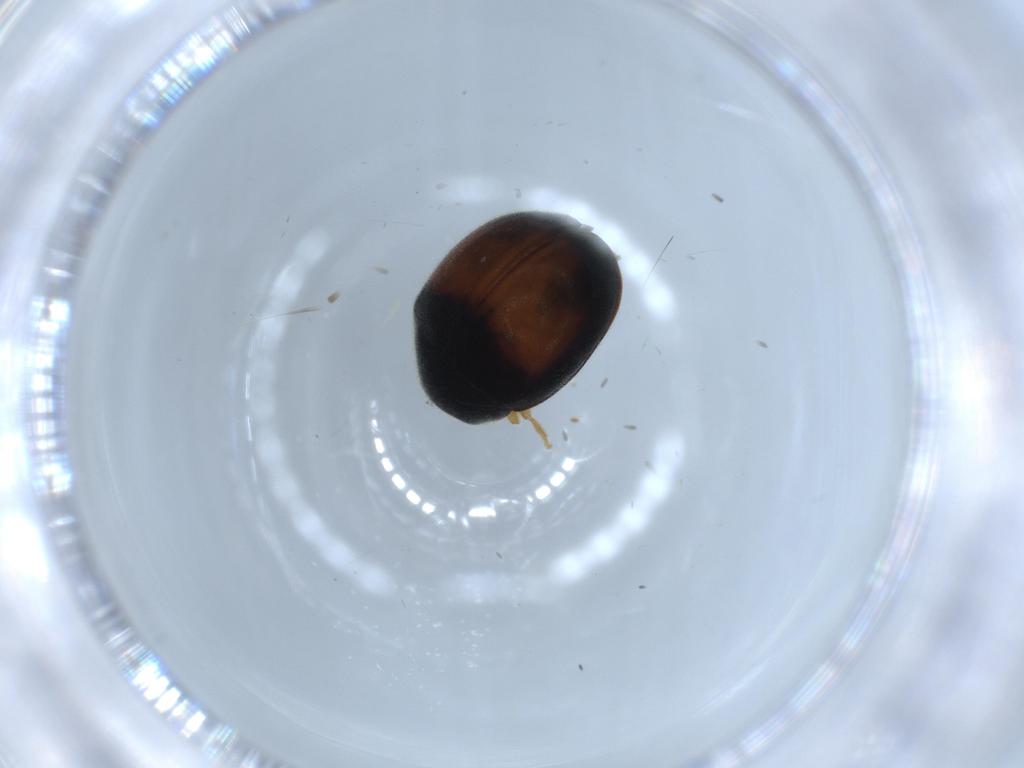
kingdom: Animalia
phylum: Arthropoda
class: Insecta
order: Coleoptera
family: Coccinellidae
